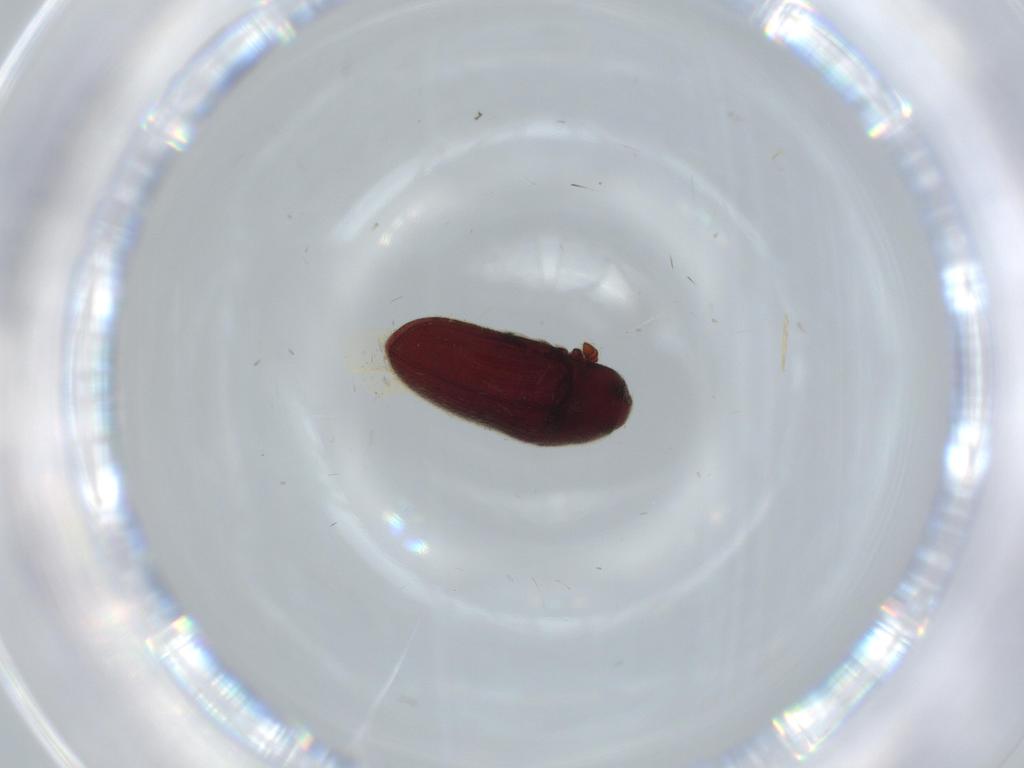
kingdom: Animalia
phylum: Arthropoda
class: Insecta
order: Coleoptera
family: Throscidae
